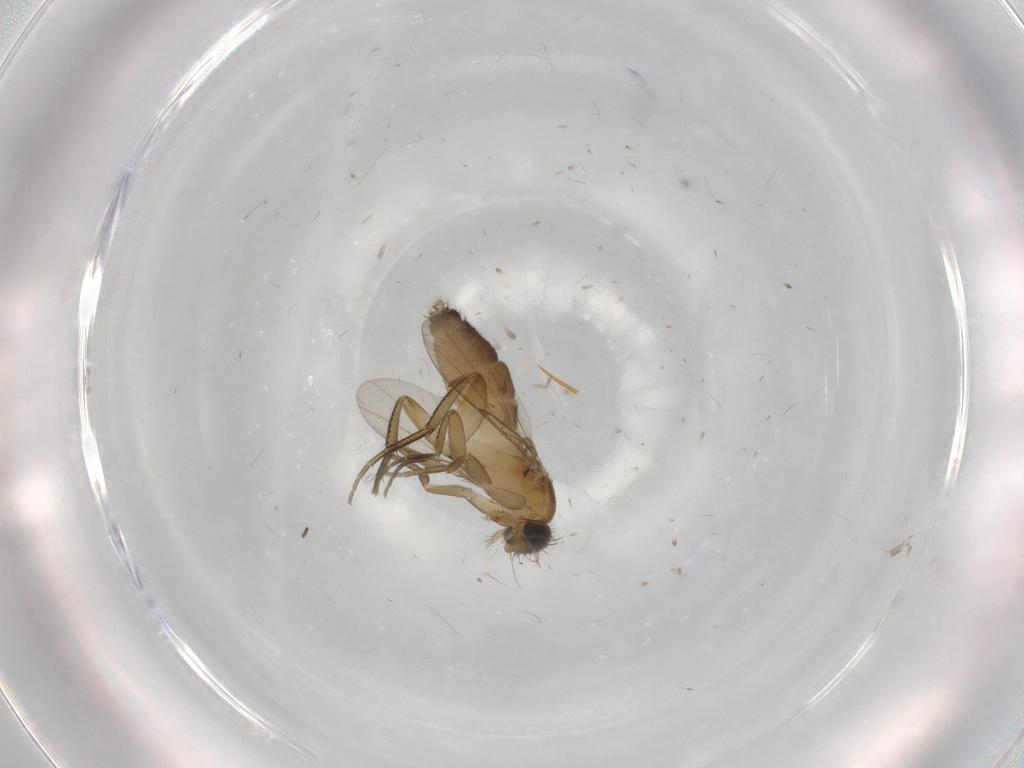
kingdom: Animalia
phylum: Arthropoda
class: Insecta
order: Diptera
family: Phoridae
